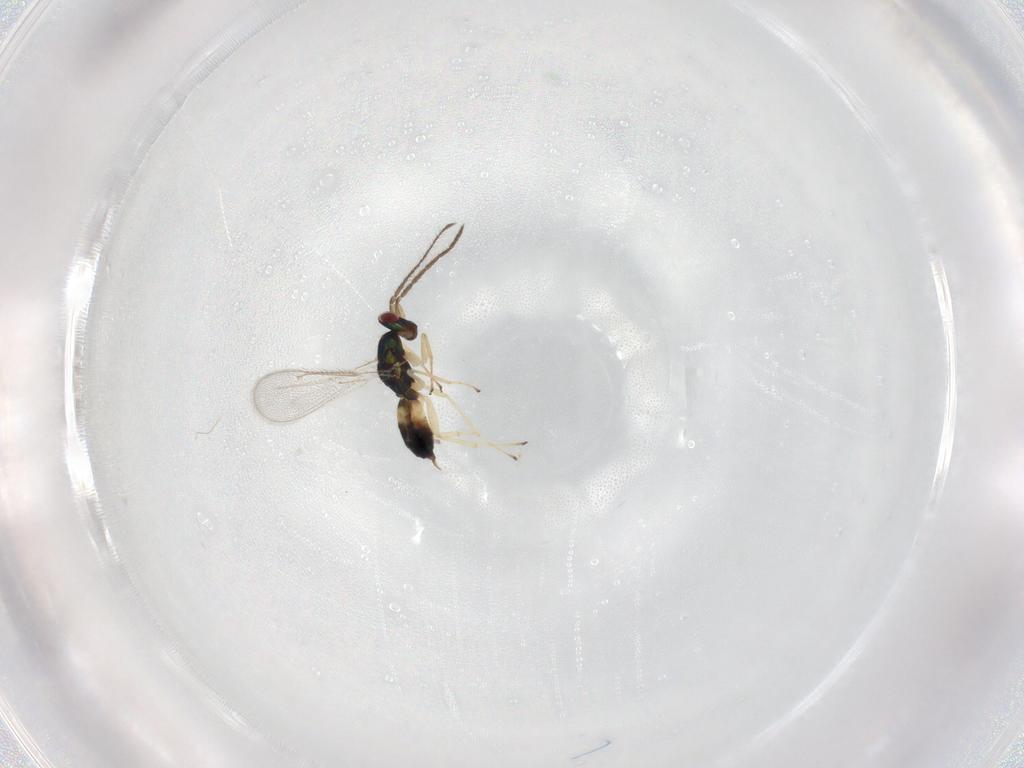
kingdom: Animalia
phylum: Arthropoda
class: Insecta
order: Hymenoptera
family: Eulophidae
